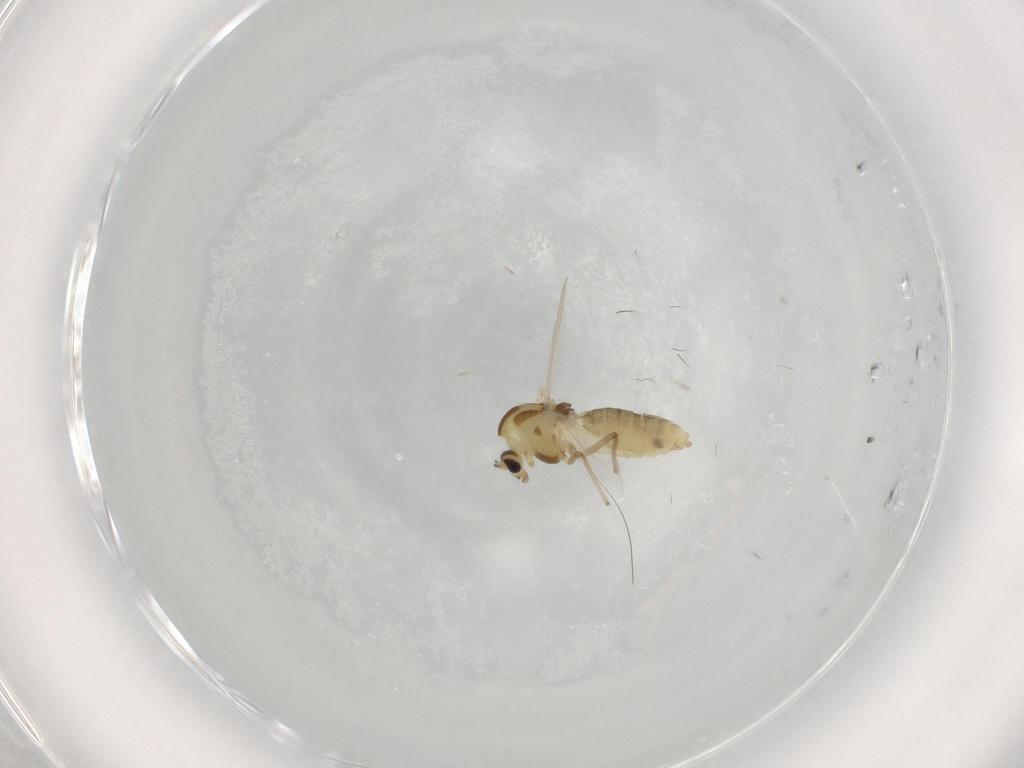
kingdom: Animalia
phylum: Arthropoda
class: Insecta
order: Diptera
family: Chironomidae
